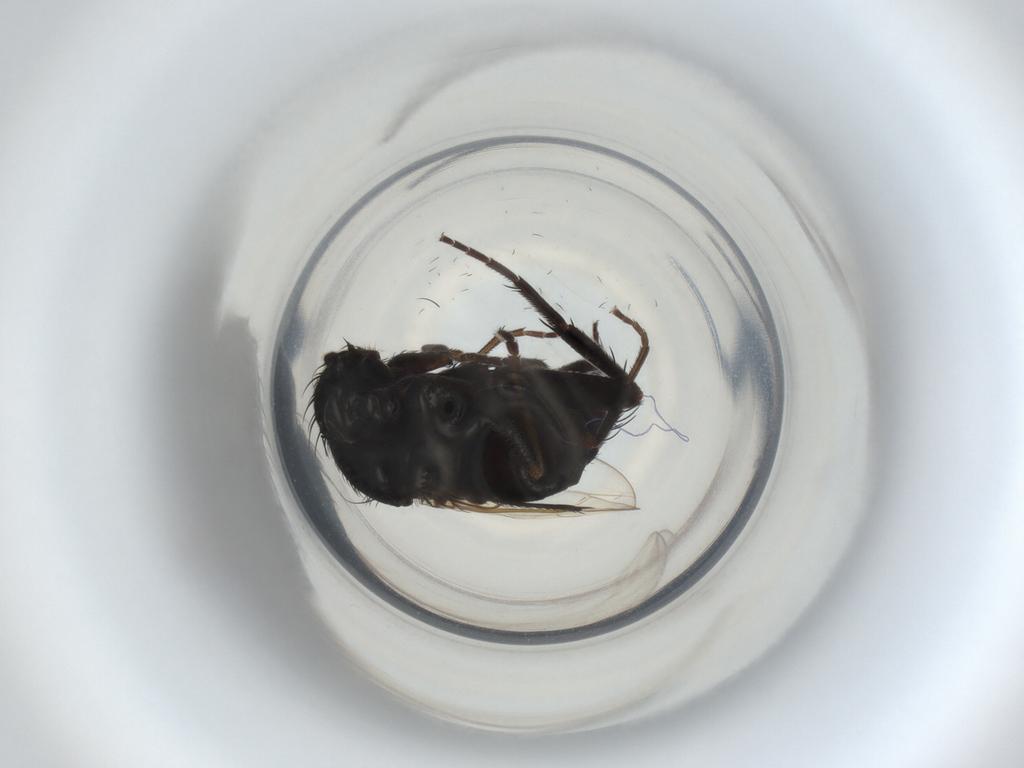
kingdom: Animalia
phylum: Arthropoda
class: Insecta
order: Diptera
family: Phoridae
